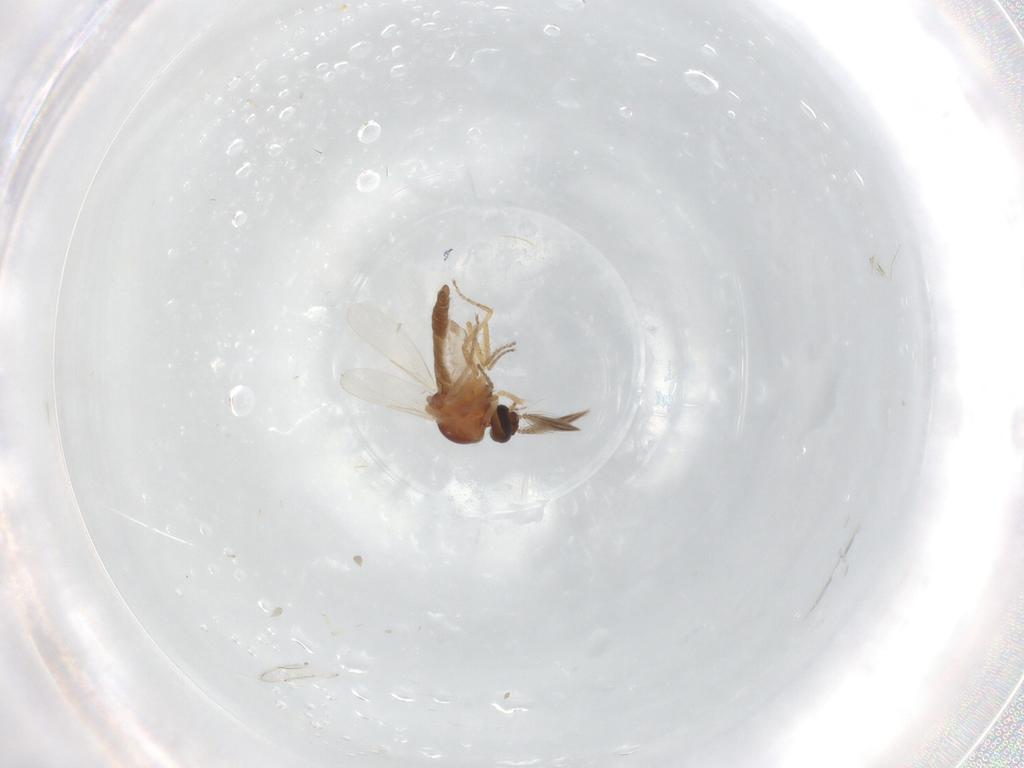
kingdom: Animalia
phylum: Arthropoda
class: Insecta
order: Diptera
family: Ceratopogonidae
